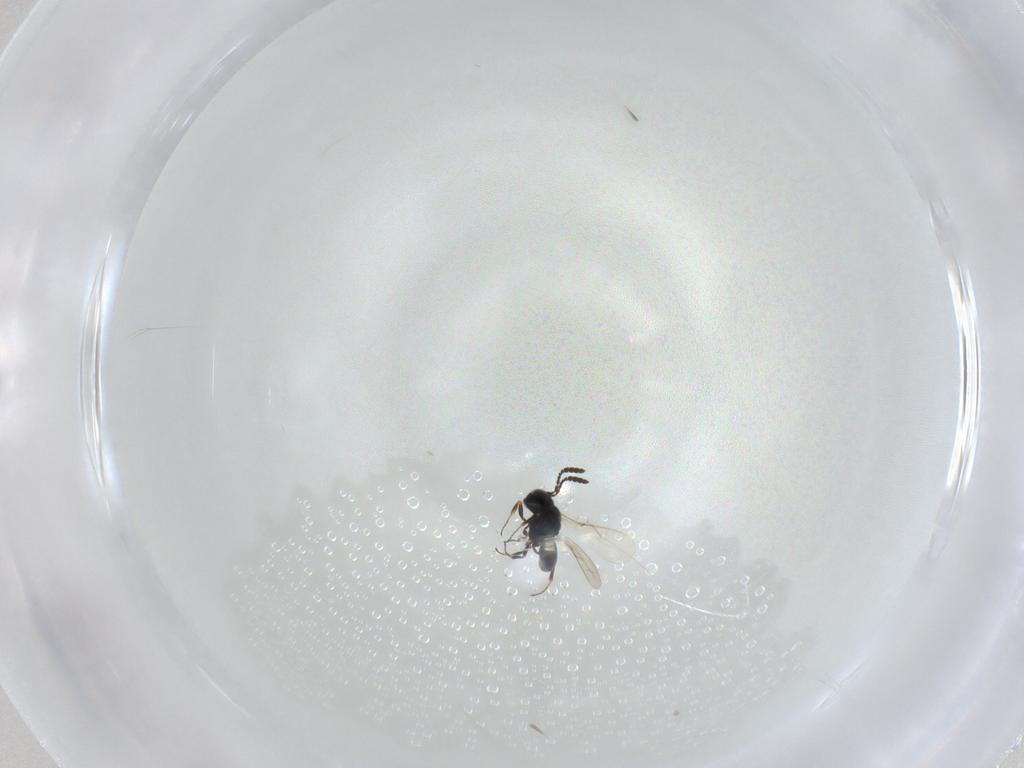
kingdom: Animalia
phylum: Arthropoda
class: Insecta
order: Hymenoptera
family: Scelionidae
